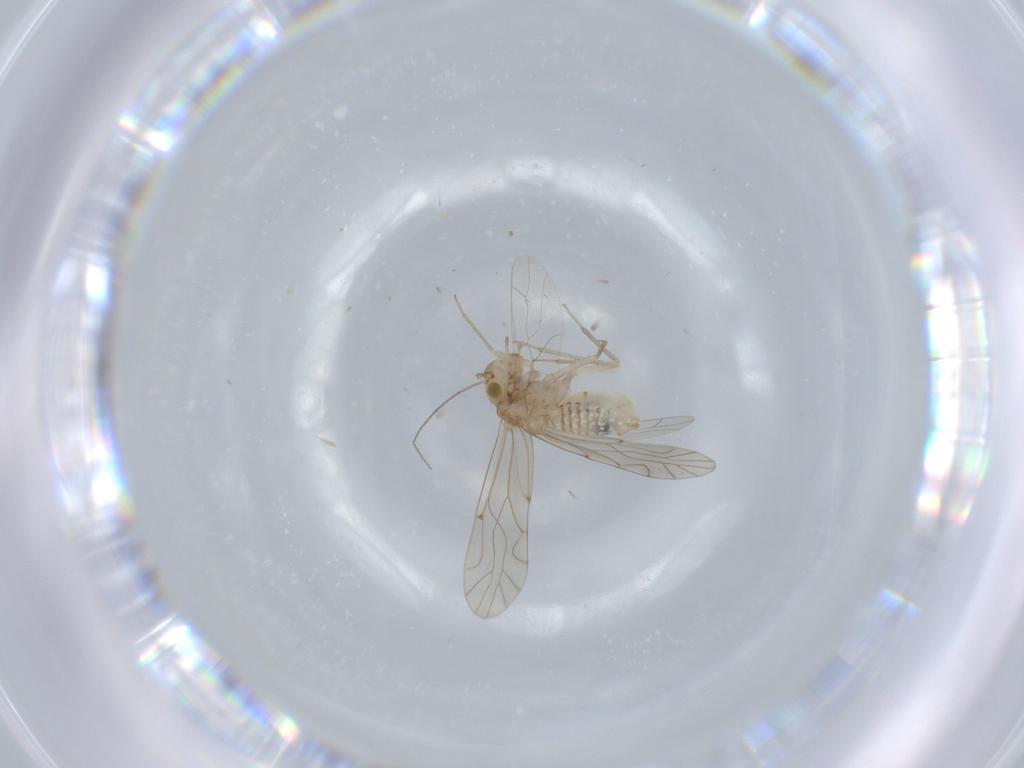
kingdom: Animalia
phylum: Arthropoda
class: Insecta
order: Psocodea
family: Lachesillidae
